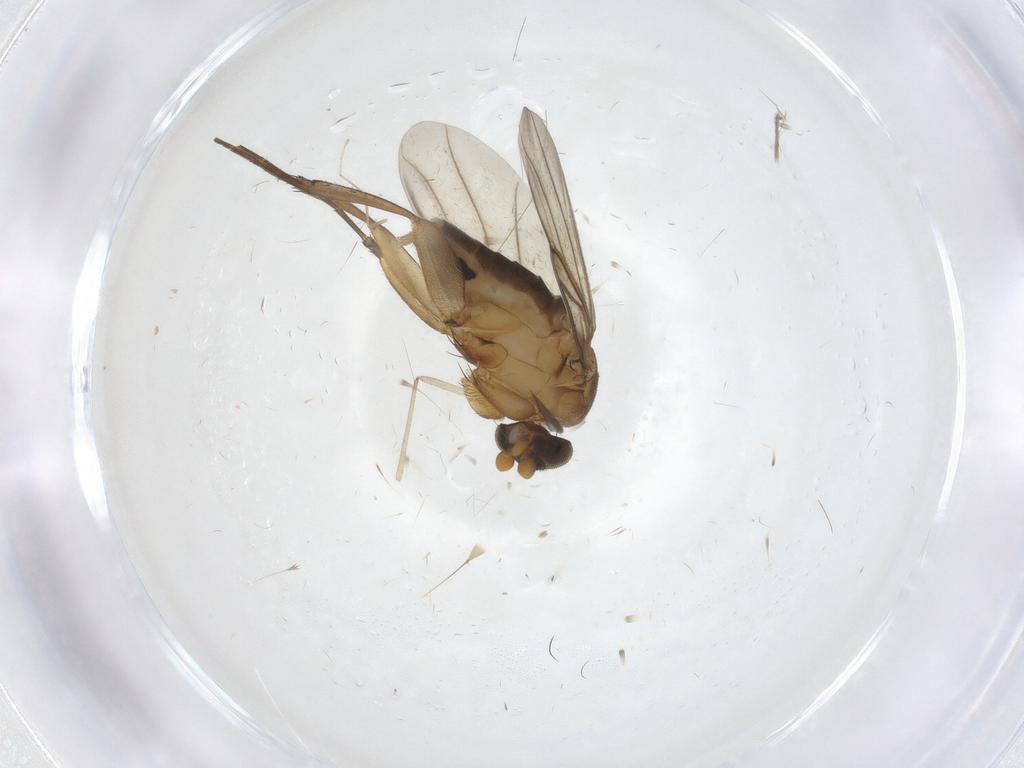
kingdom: Animalia
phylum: Arthropoda
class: Insecta
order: Diptera
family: Phoridae
